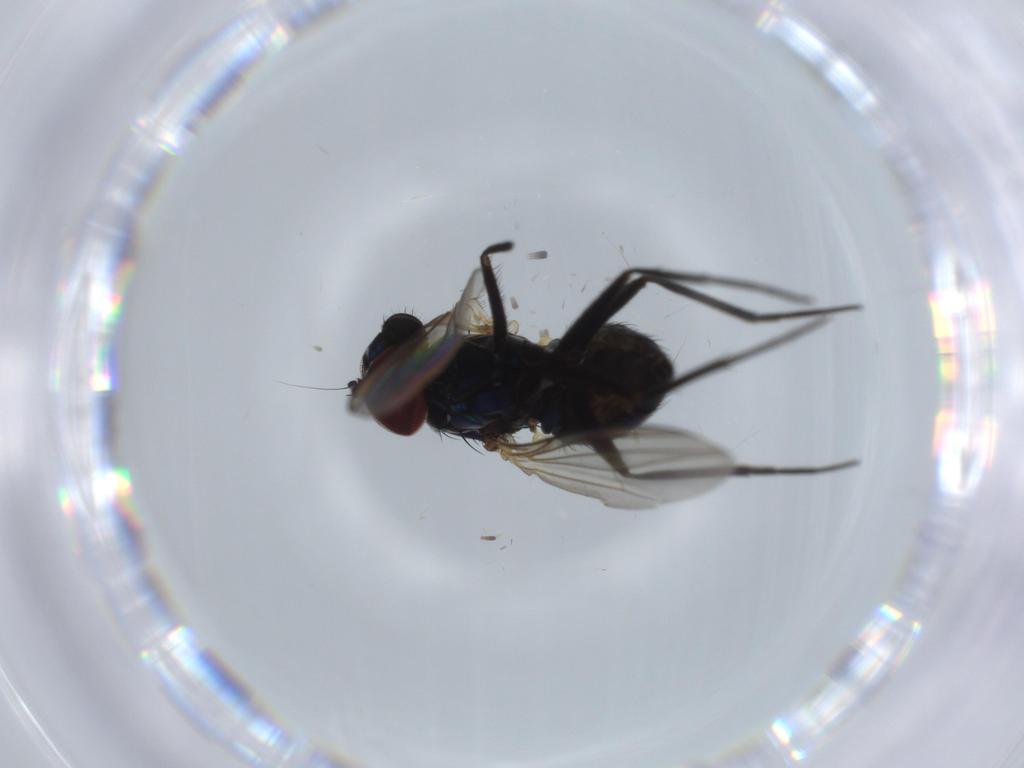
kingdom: Animalia
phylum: Arthropoda
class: Insecta
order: Diptera
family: Dolichopodidae
